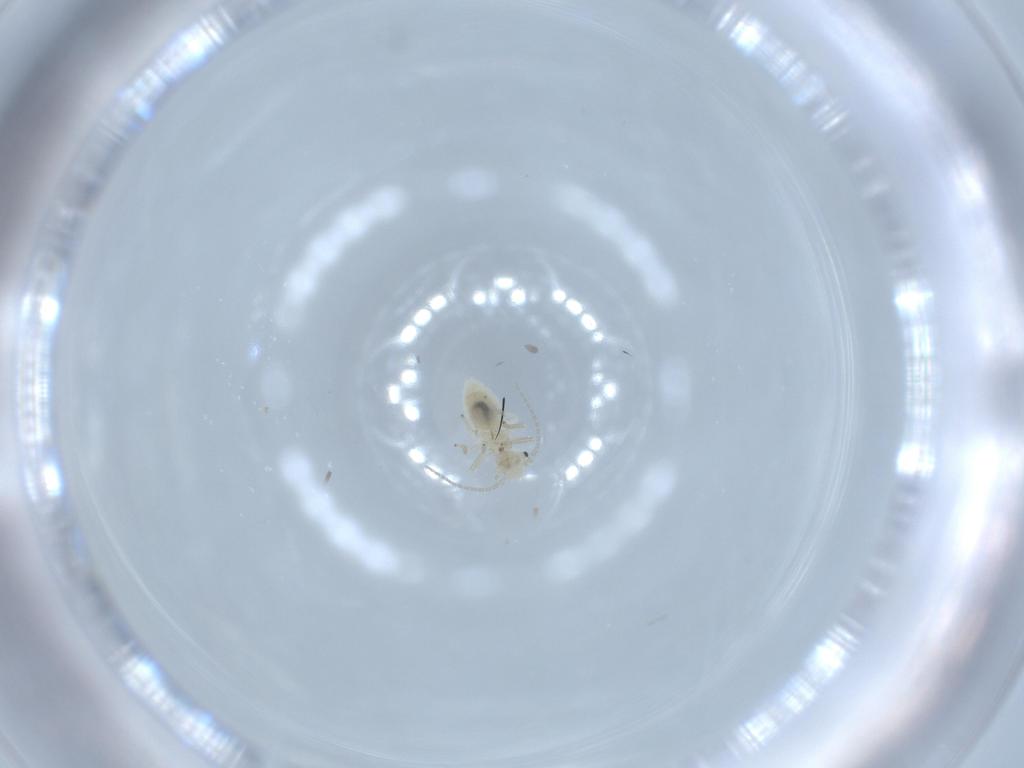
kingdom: Animalia
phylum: Arthropoda
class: Insecta
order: Psocodea
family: Caeciliusidae
